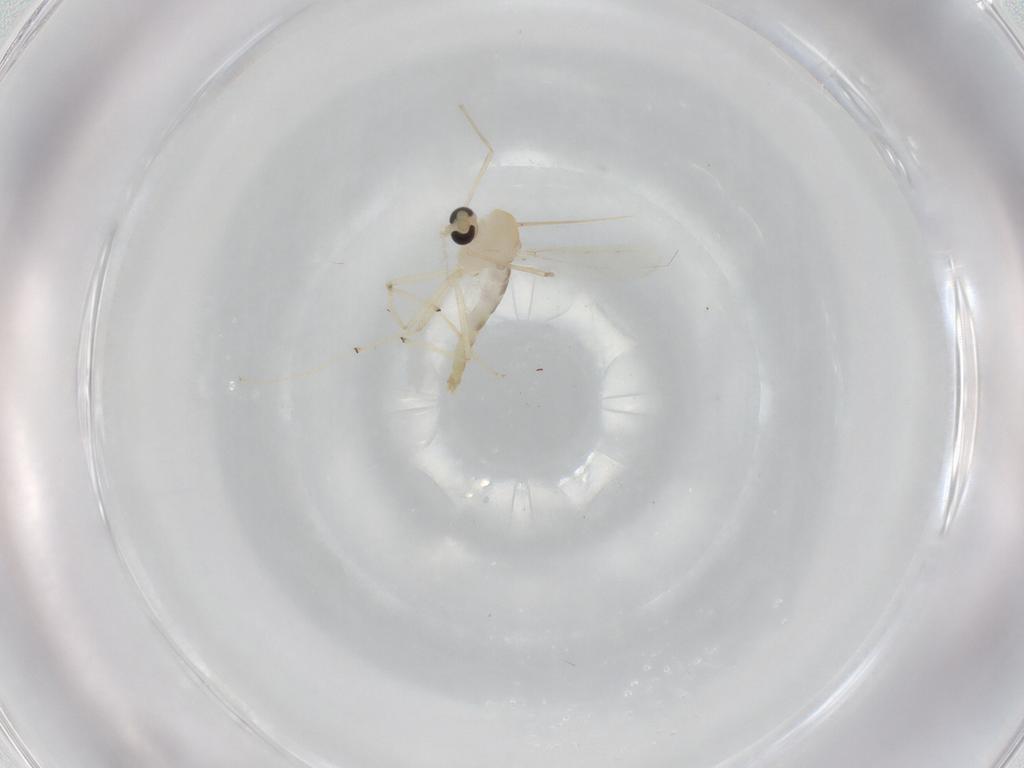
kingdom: Animalia
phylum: Arthropoda
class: Insecta
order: Diptera
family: Chironomidae
